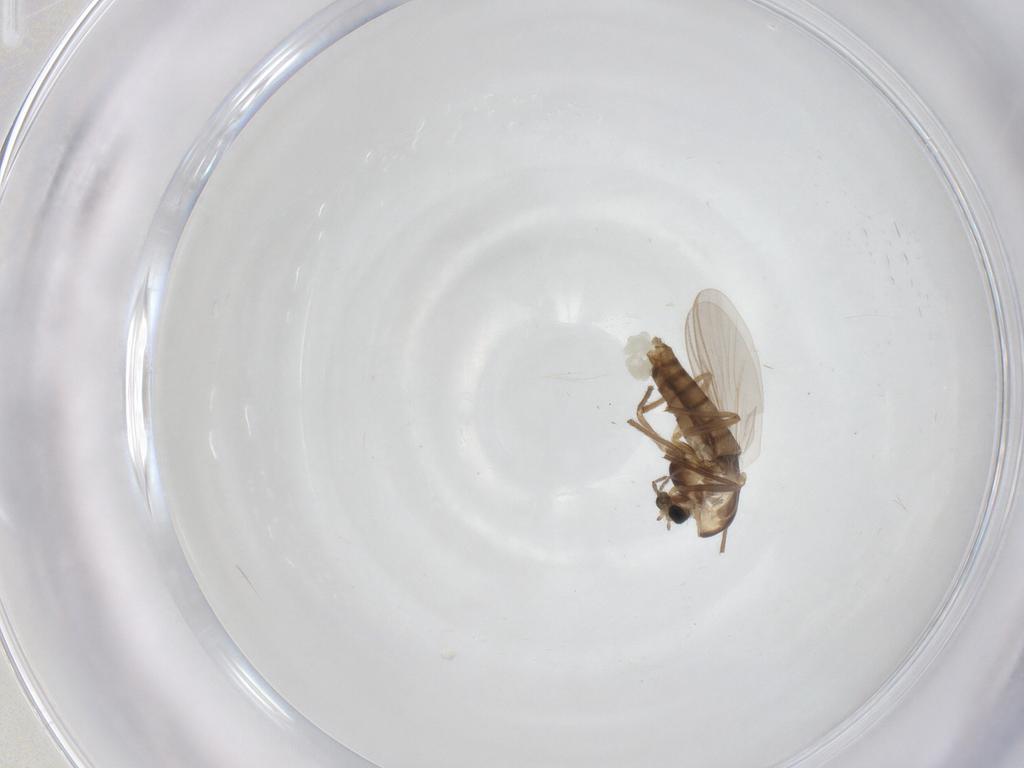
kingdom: Animalia
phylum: Arthropoda
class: Insecta
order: Diptera
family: Chironomidae
